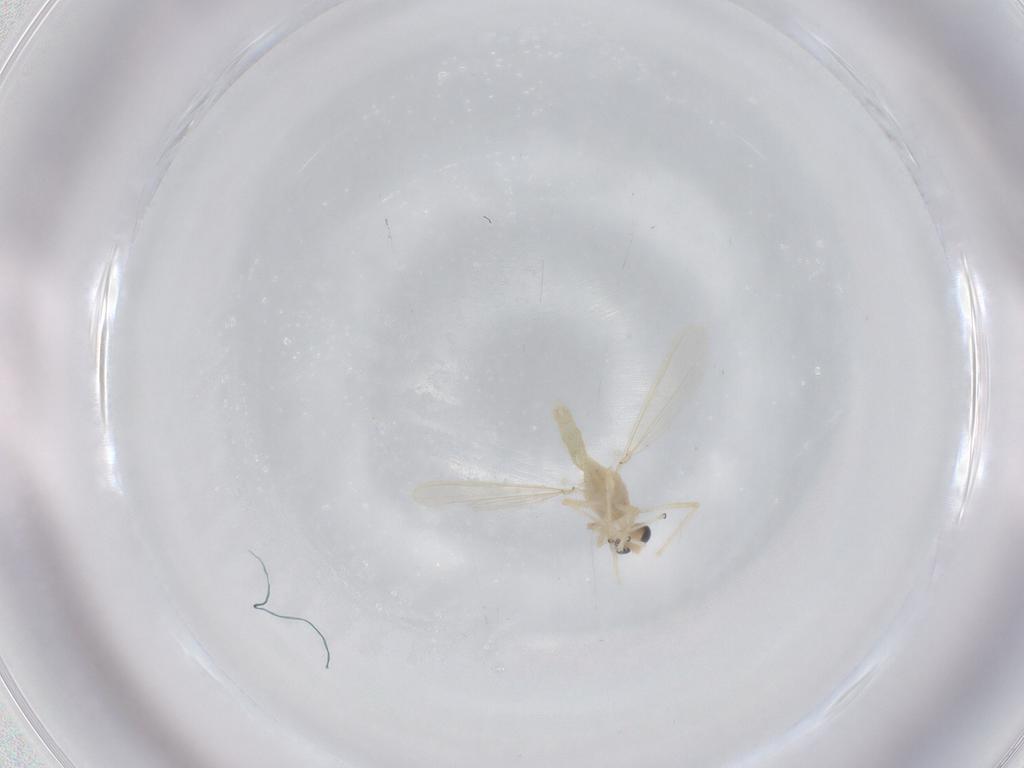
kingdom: Animalia
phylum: Arthropoda
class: Insecta
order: Diptera
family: Chironomidae
